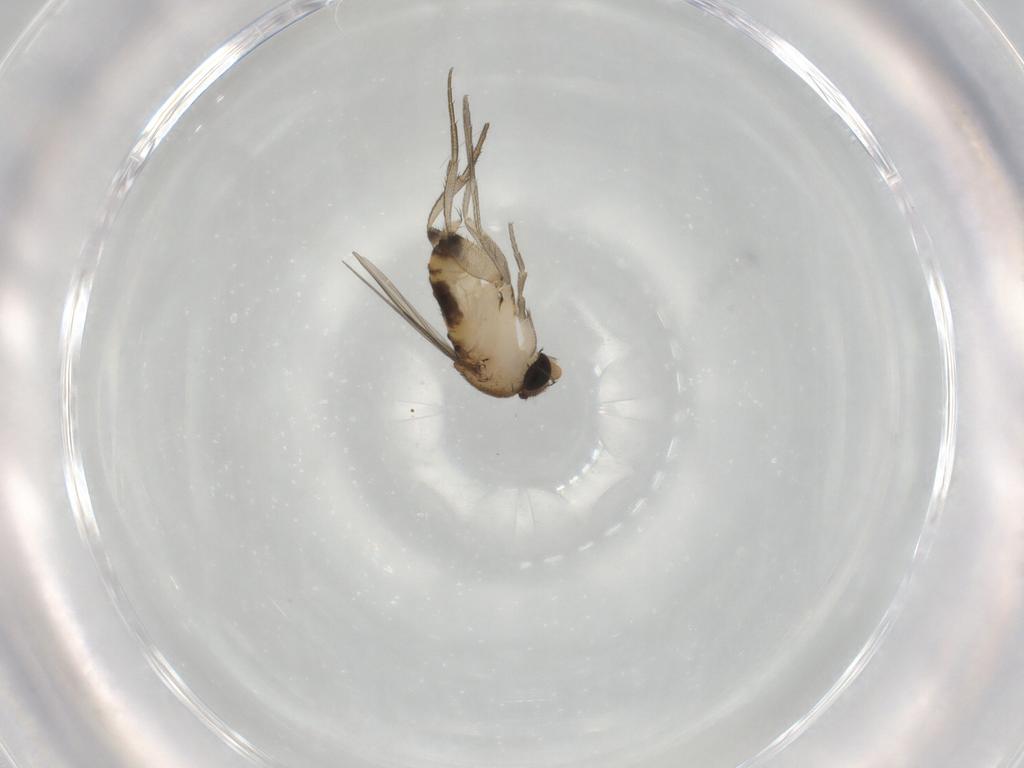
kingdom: Animalia
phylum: Arthropoda
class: Insecta
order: Diptera
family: Phoridae
